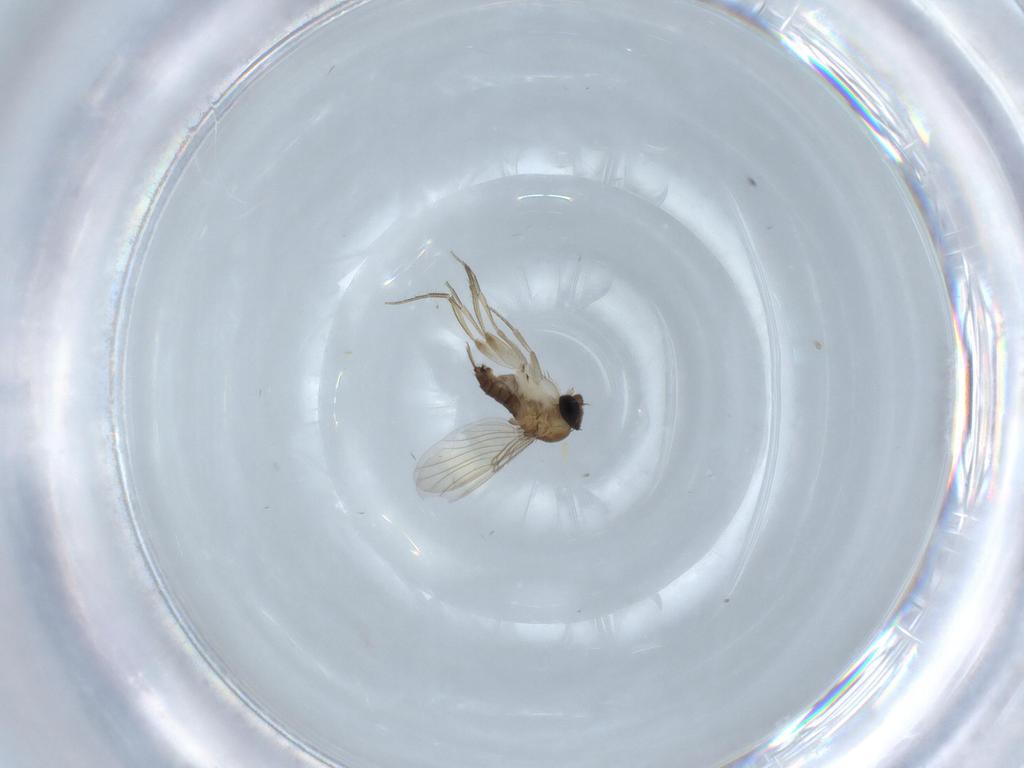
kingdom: Animalia
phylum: Arthropoda
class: Insecta
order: Diptera
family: Phoridae
